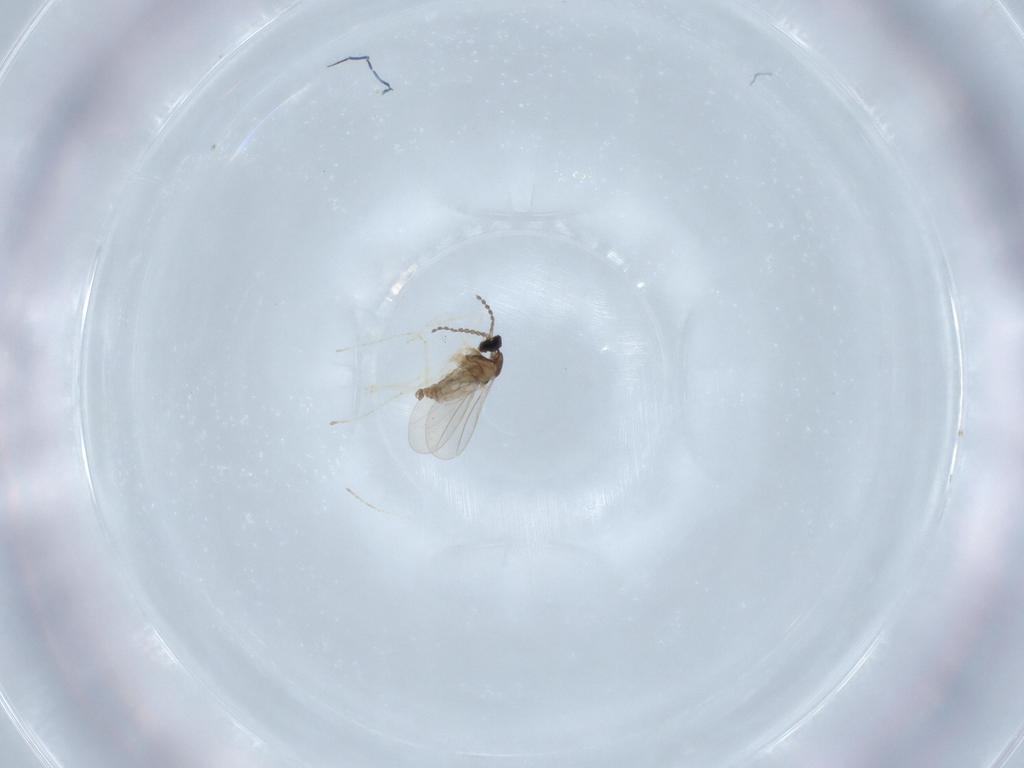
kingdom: Animalia
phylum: Arthropoda
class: Insecta
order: Diptera
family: Cecidomyiidae
